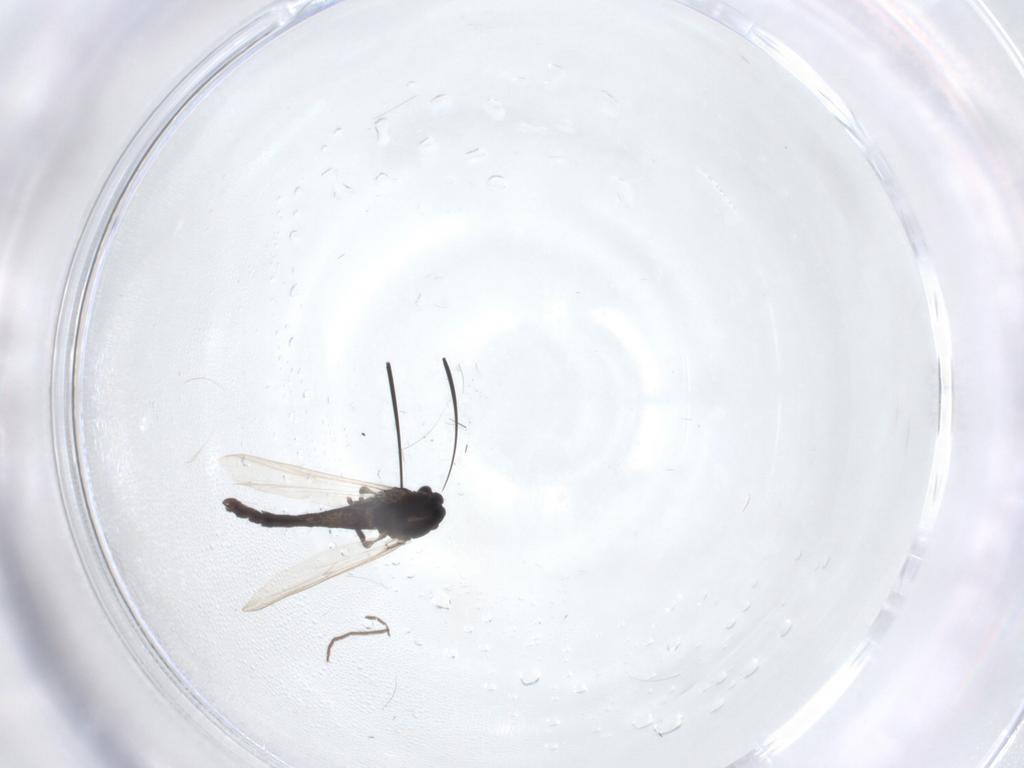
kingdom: Animalia
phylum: Arthropoda
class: Insecta
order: Diptera
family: Chironomidae
